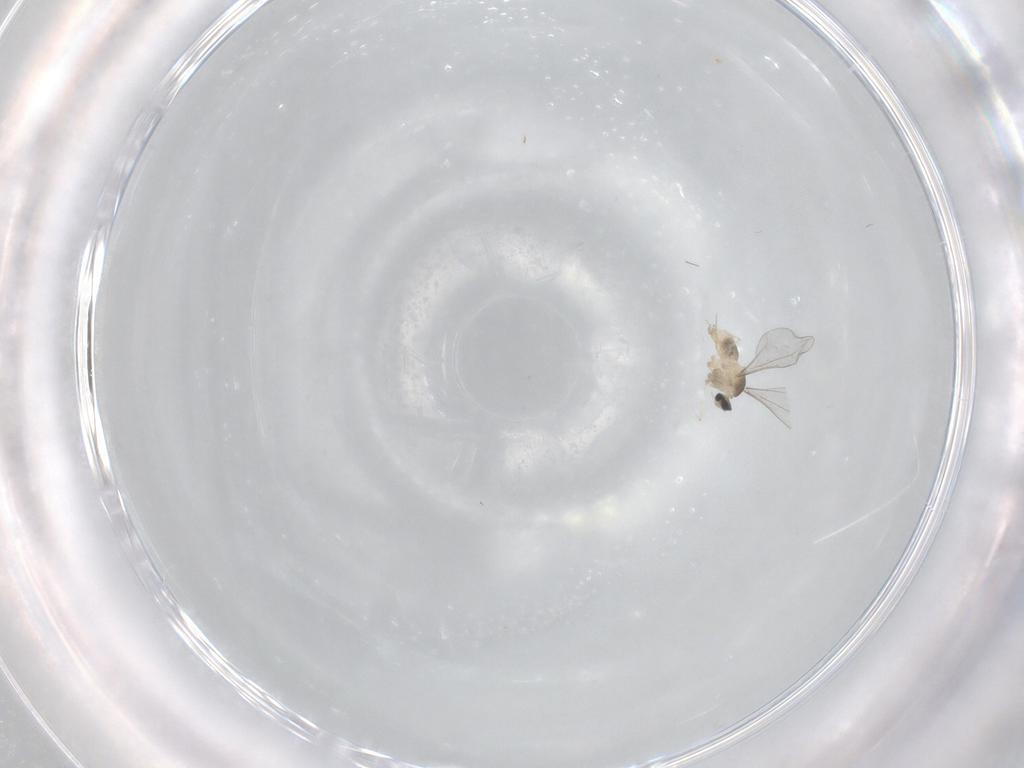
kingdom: Animalia
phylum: Arthropoda
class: Insecta
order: Diptera
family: Cecidomyiidae
